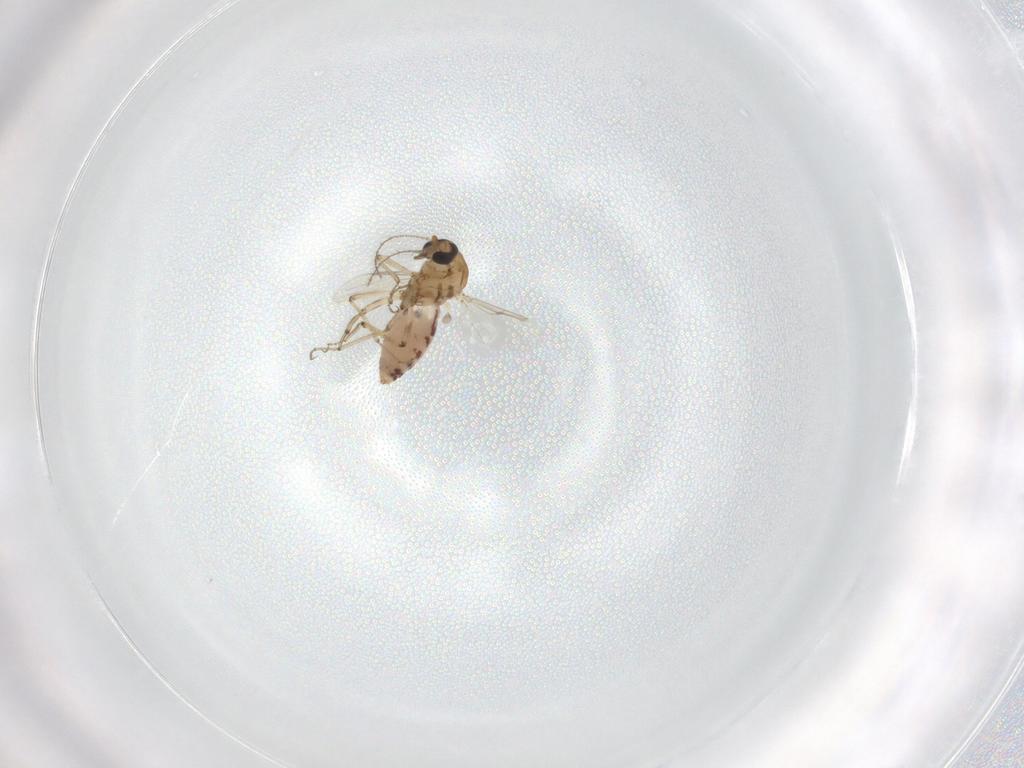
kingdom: Animalia
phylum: Arthropoda
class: Insecta
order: Diptera
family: Ceratopogonidae
